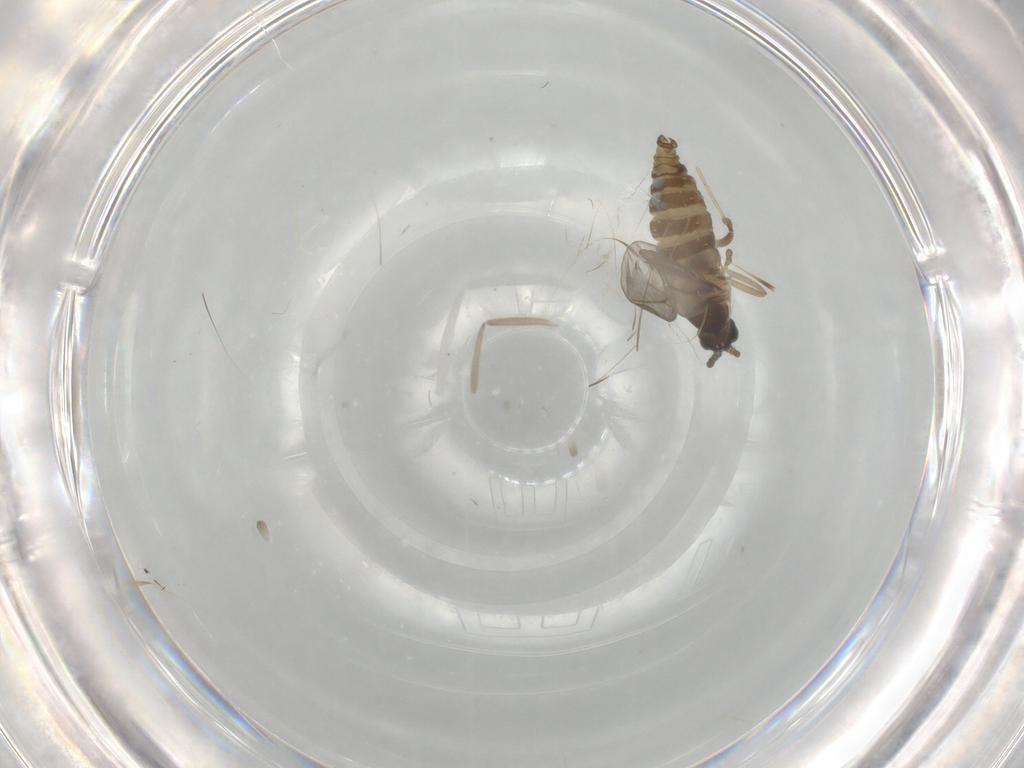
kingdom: Animalia
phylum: Arthropoda
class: Insecta
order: Diptera
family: Cecidomyiidae
